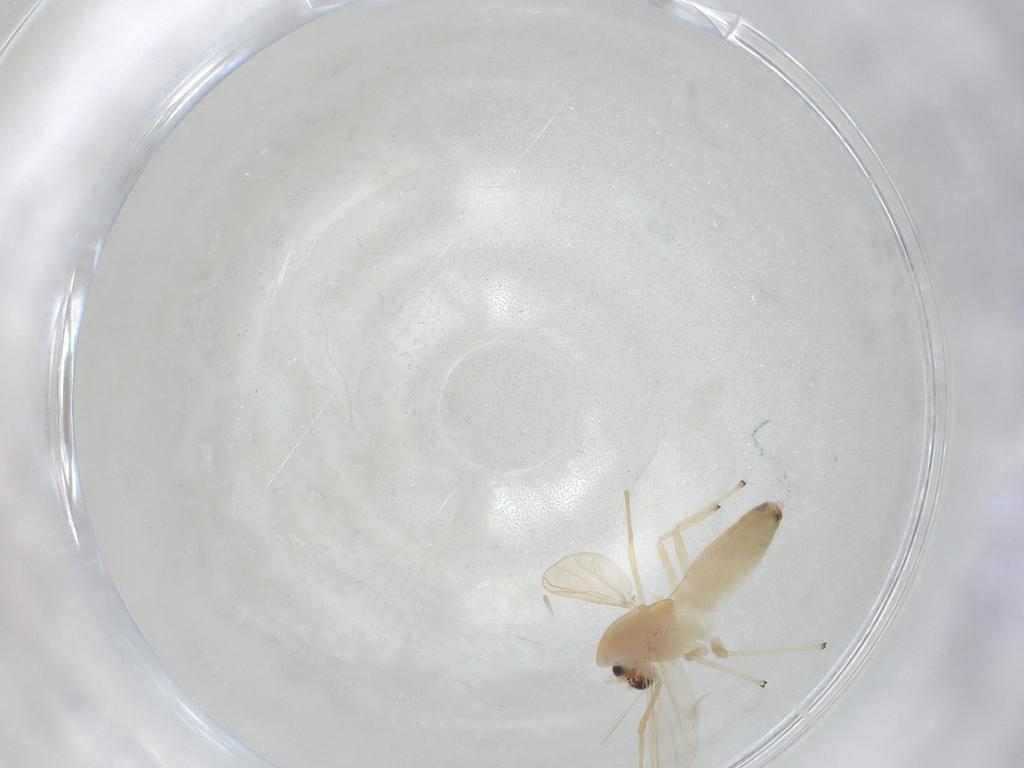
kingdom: Animalia
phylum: Arthropoda
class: Insecta
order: Diptera
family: Chironomidae
